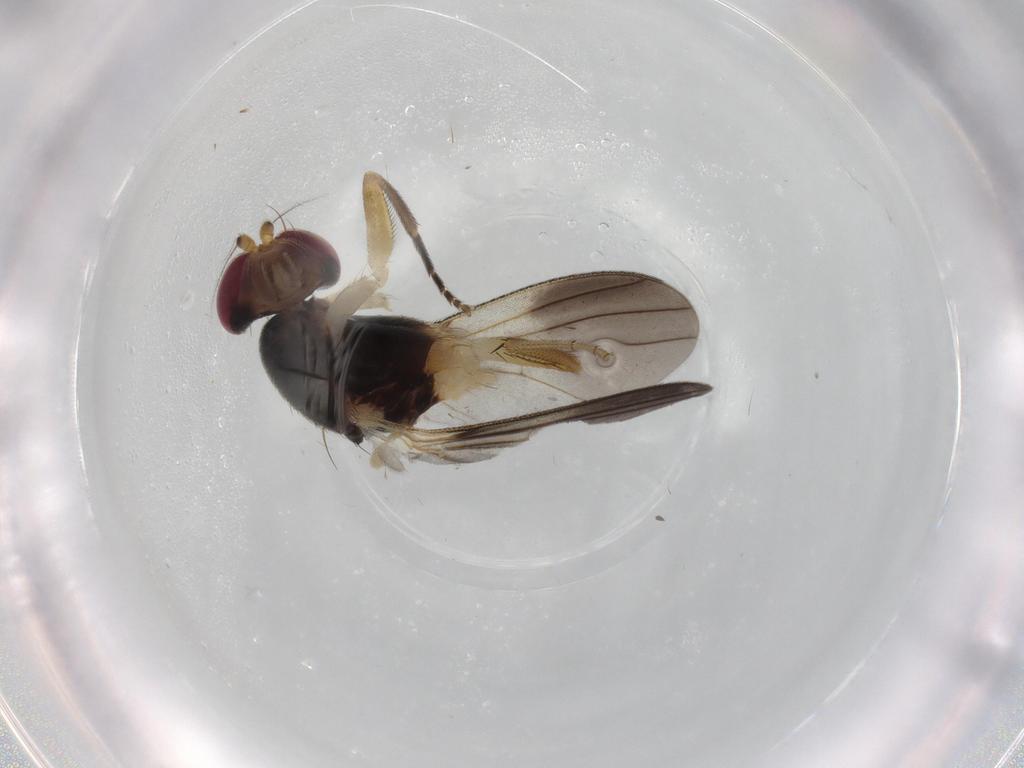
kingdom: Animalia
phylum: Arthropoda
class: Insecta
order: Diptera
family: Clusiidae
